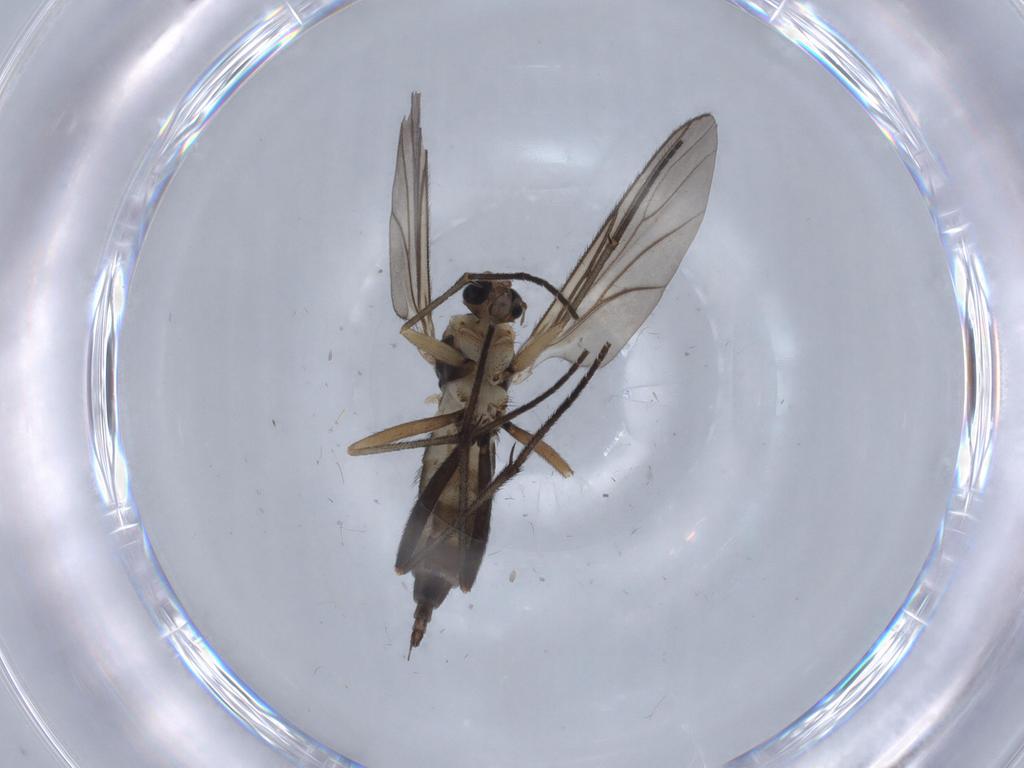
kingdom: Animalia
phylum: Arthropoda
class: Insecta
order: Diptera
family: Sciaridae
